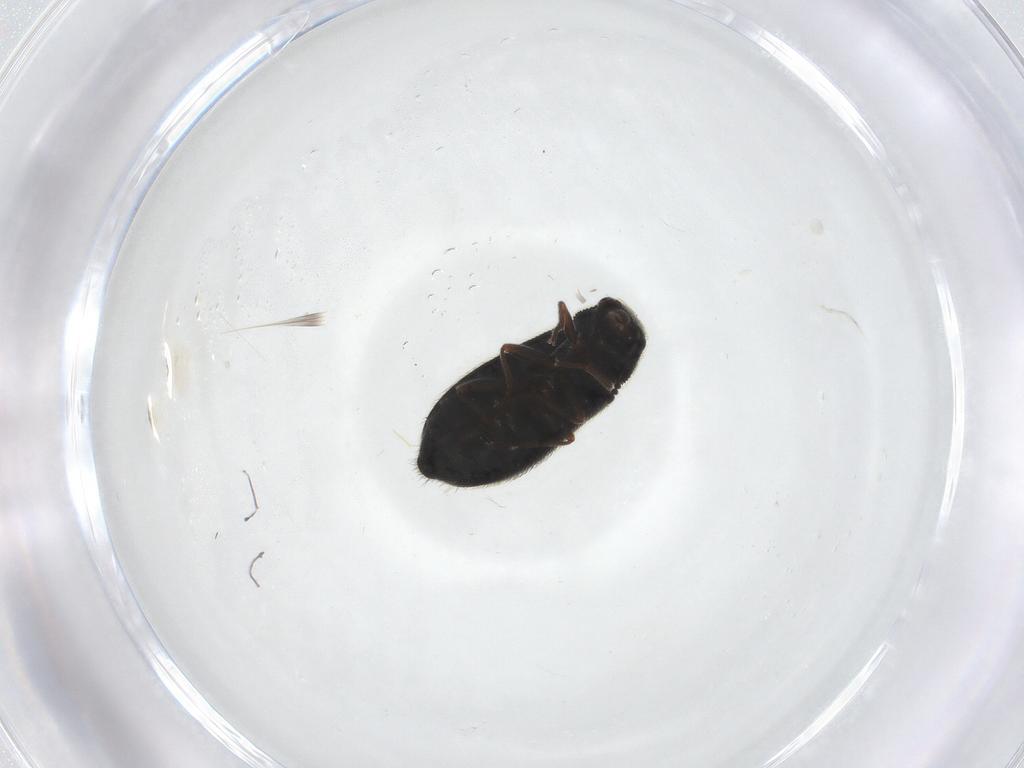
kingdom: Animalia
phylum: Arthropoda
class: Insecta
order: Coleoptera
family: Melyridae
